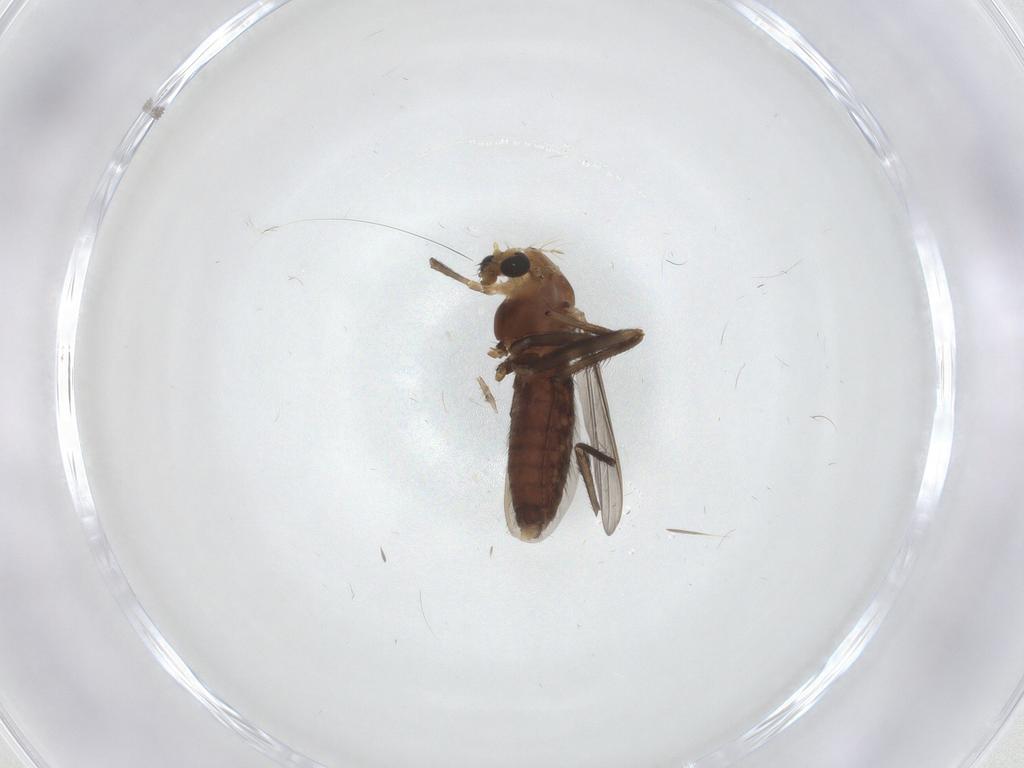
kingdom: Animalia
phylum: Arthropoda
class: Insecta
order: Diptera
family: Chironomidae
